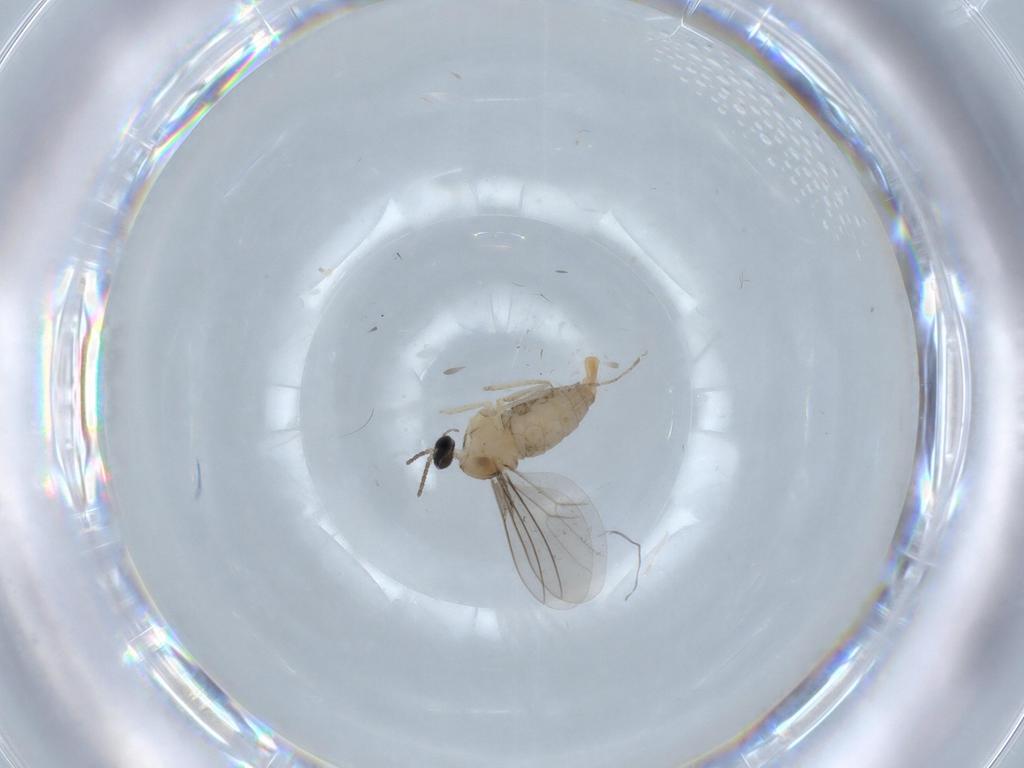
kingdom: Animalia
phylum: Arthropoda
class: Insecta
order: Diptera
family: Cecidomyiidae
